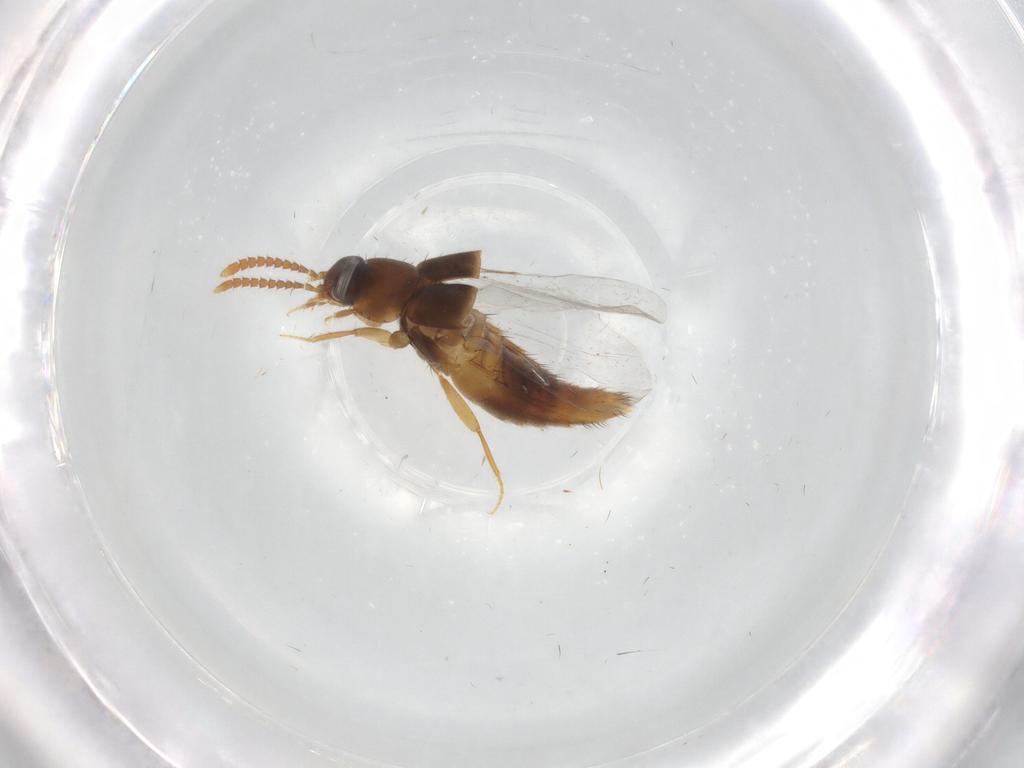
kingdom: Animalia
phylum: Arthropoda
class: Insecta
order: Coleoptera
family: Staphylinidae
